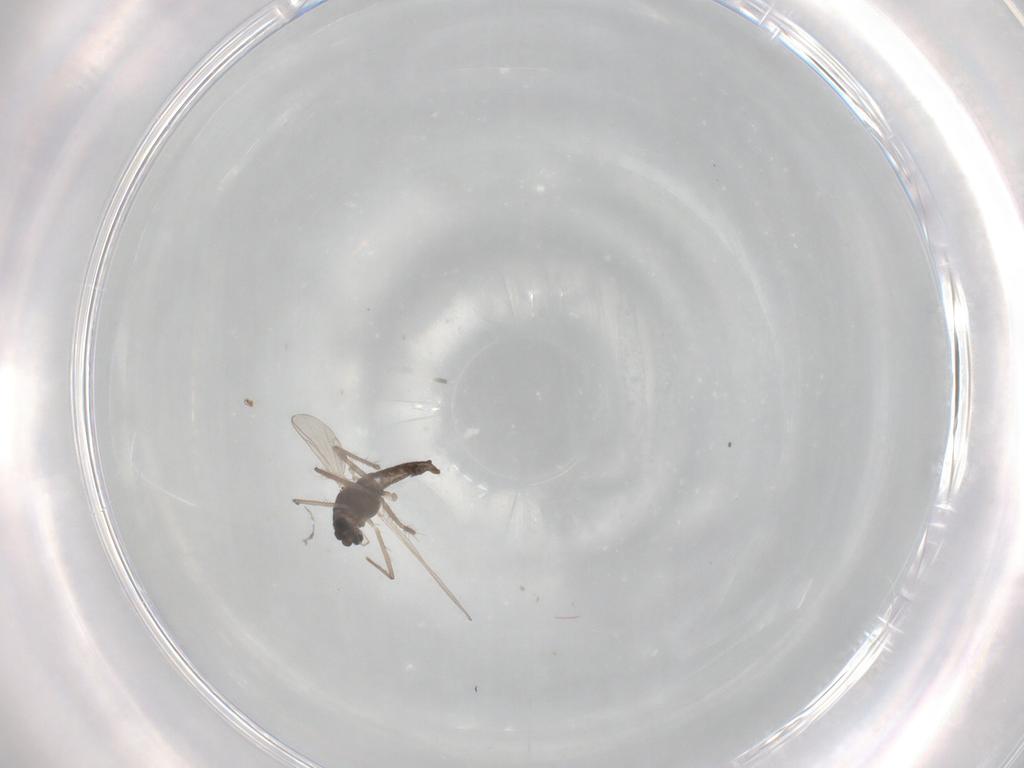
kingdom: Animalia
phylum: Arthropoda
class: Insecta
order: Diptera
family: Chironomidae
